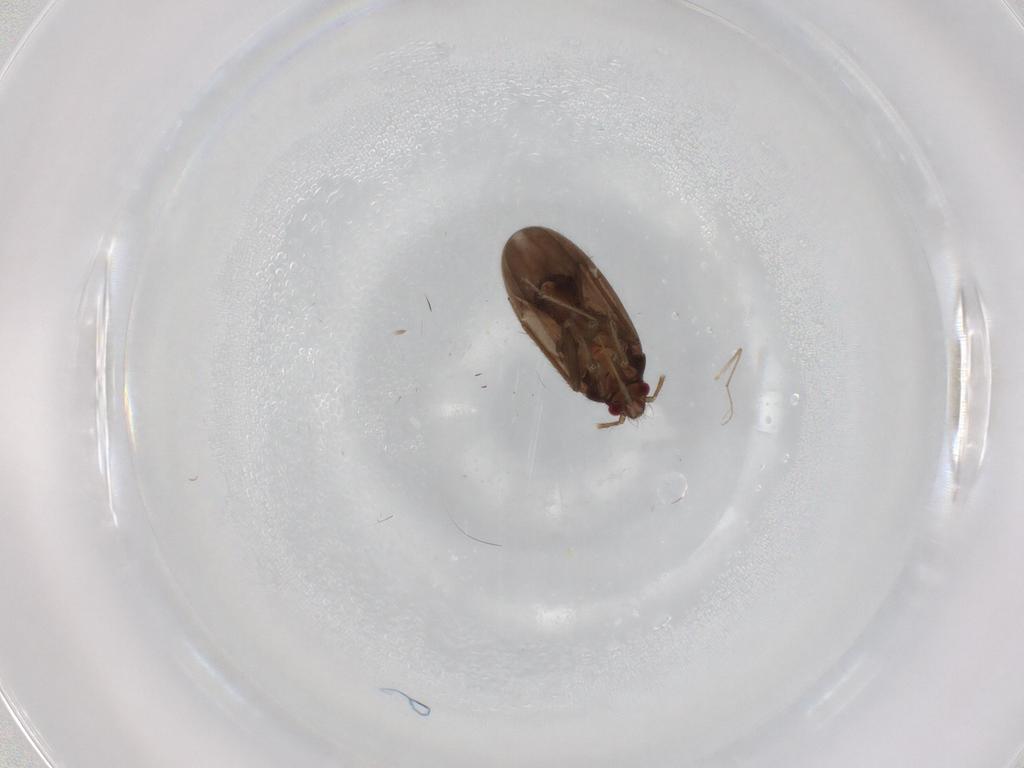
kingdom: Animalia
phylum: Arthropoda
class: Insecta
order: Hemiptera
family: Ceratocombidae
